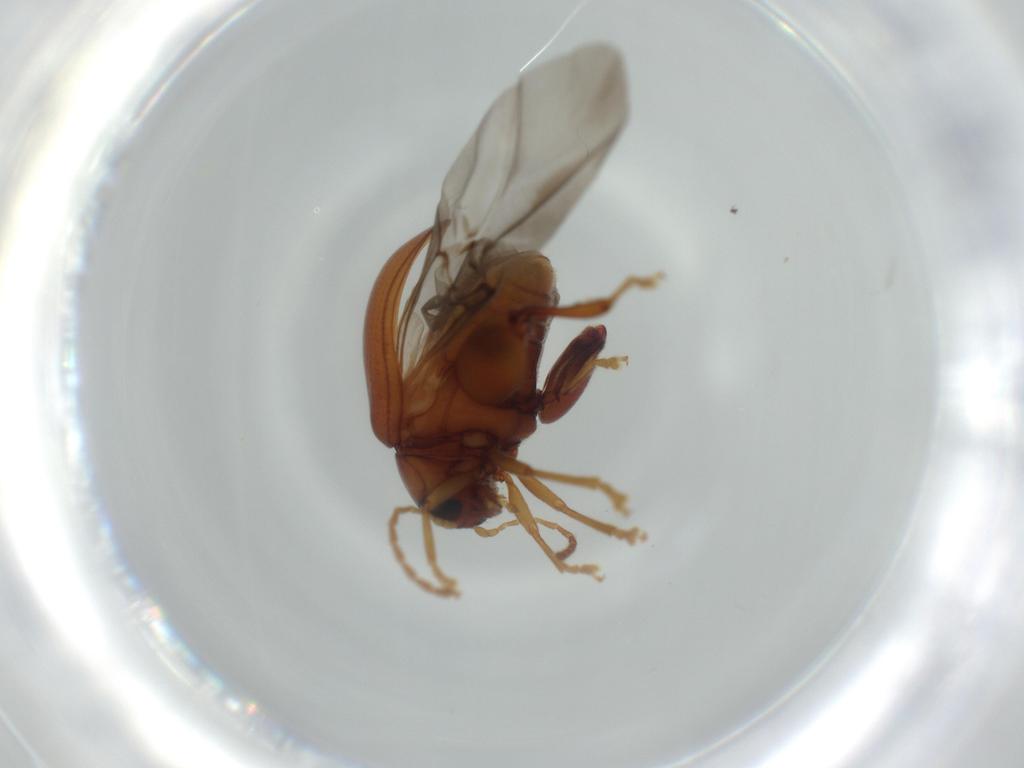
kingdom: Animalia
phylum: Arthropoda
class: Insecta
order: Coleoptera
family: Chrysomelidae
